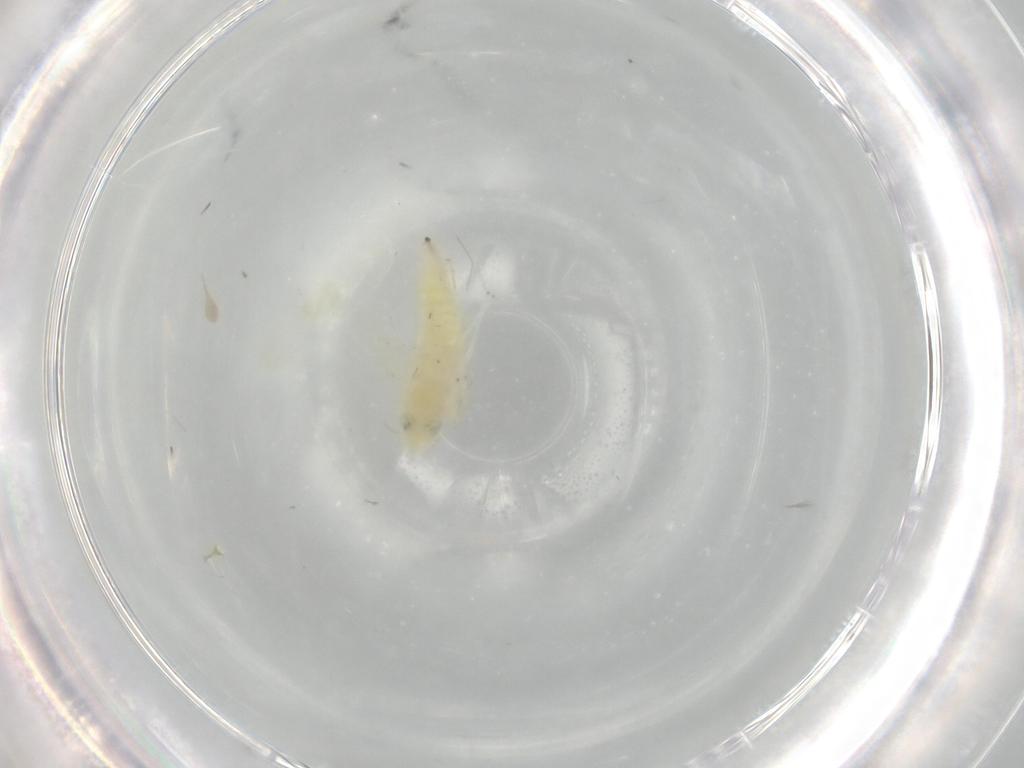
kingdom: Animalia
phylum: Arthropoda
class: Insecta
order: Hemiptera
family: Cicadellidae
